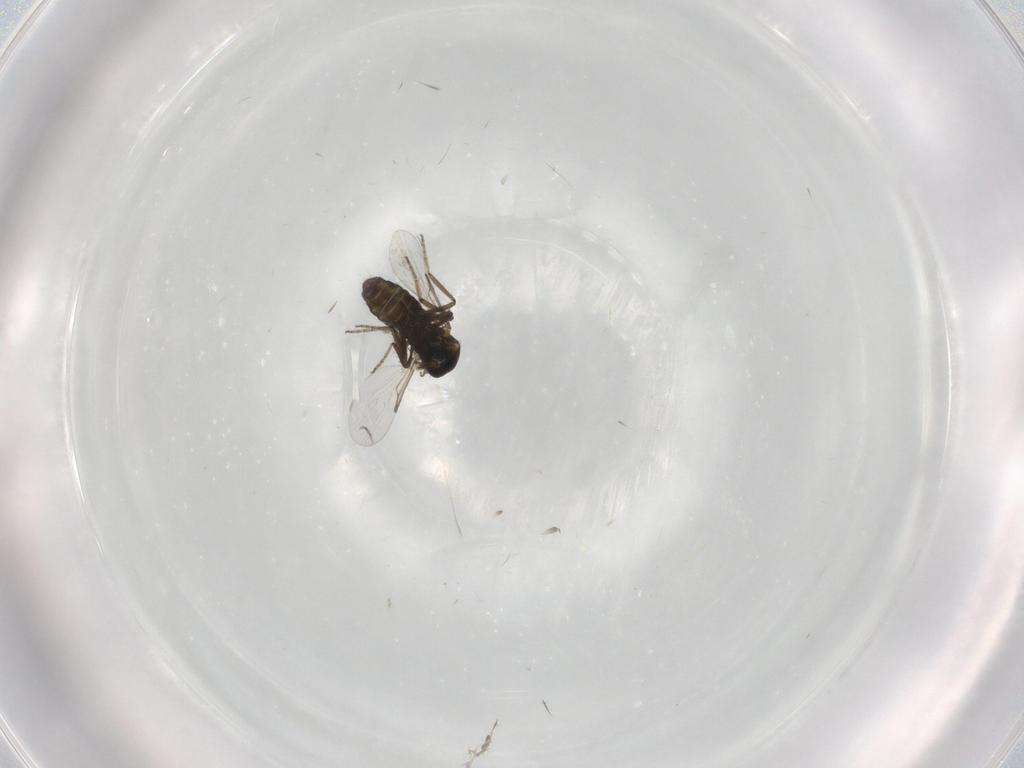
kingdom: Animalia
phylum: Arthropoda
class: Insecta
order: Diptera
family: Ceratopogonidae
